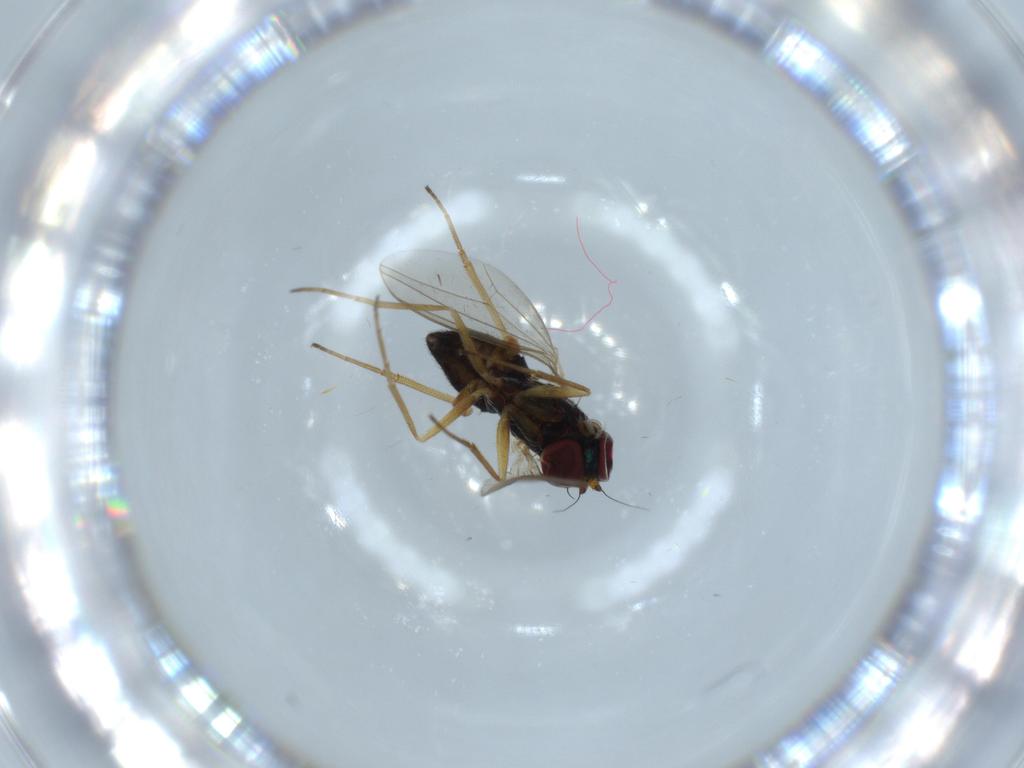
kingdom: Animalia
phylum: Arthropoda
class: Insecta
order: Diptera
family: Dolichopodidae
